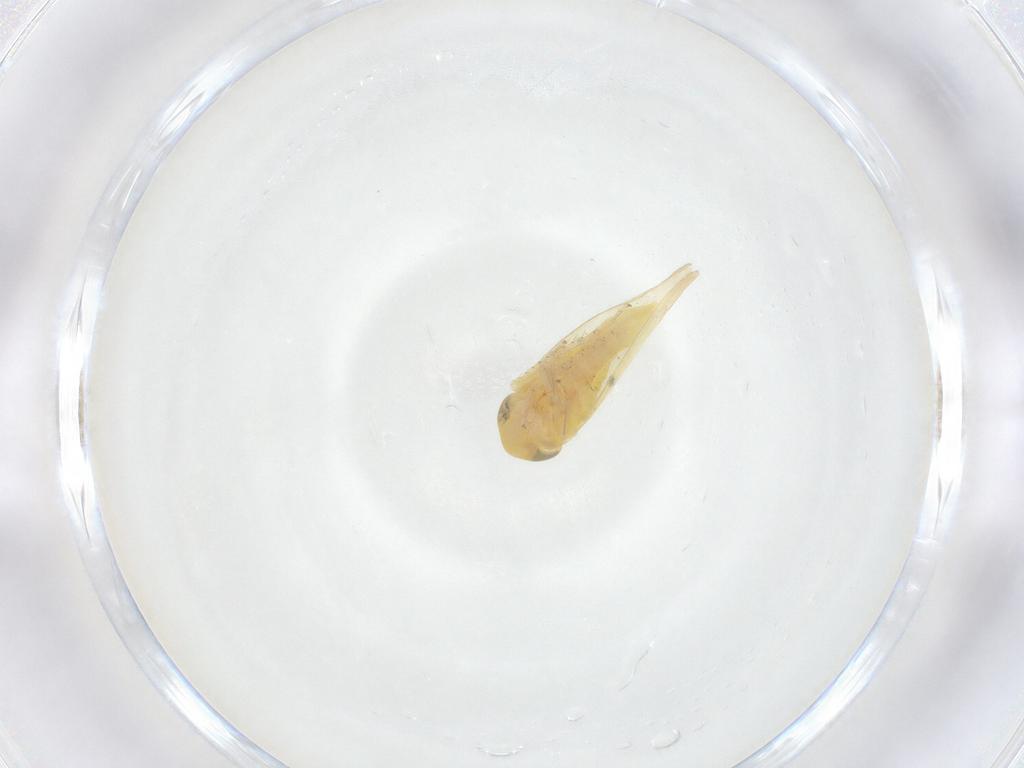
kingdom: Animalia
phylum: Arthropoda
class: Insecta
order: Hemiptera
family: Cicadellidae
